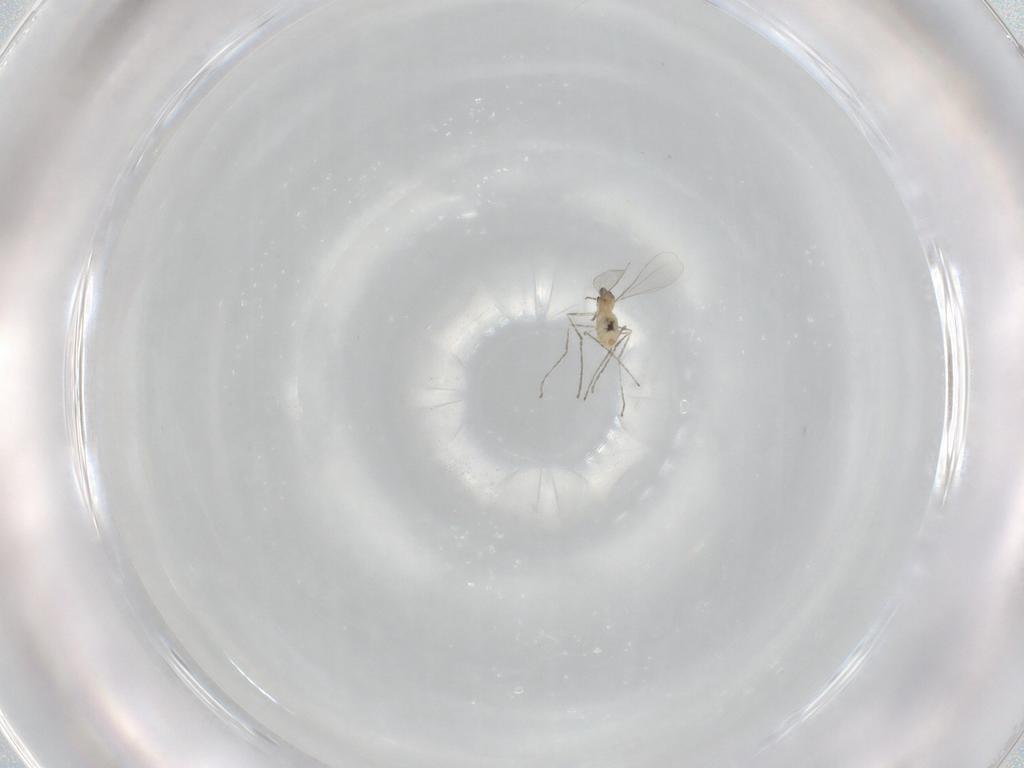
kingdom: Animalia
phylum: Arthropoda
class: Insecta
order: Diptera
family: Cecidomyiidae
